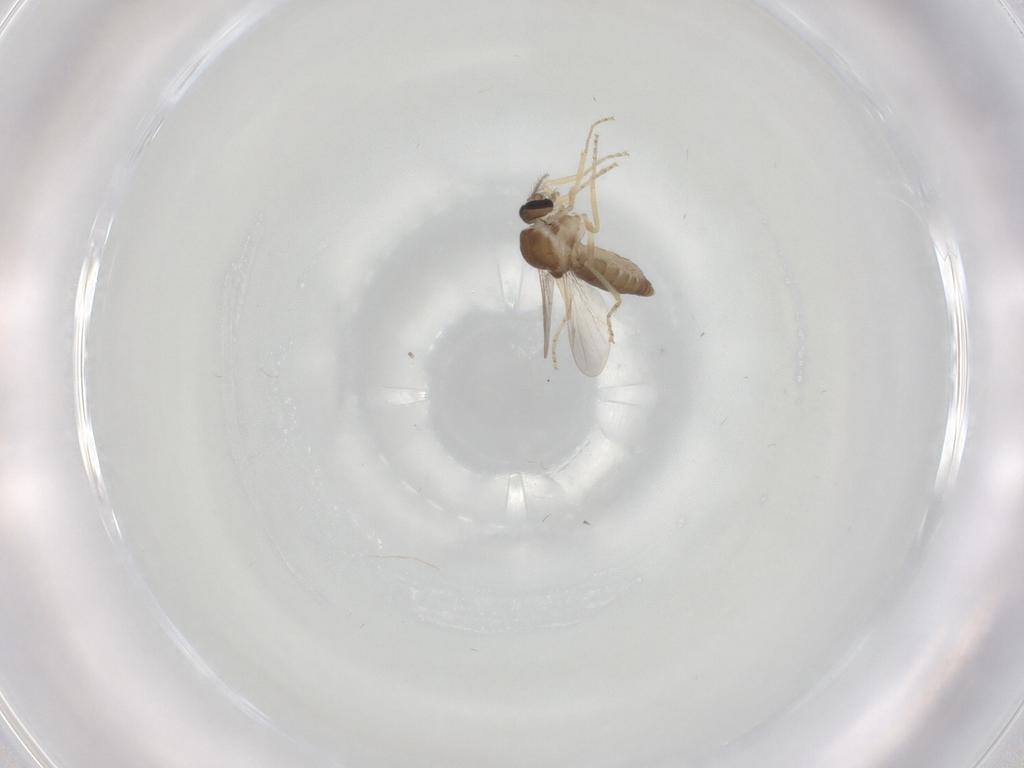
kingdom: Animalia
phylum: Arthropoda
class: Insecta
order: Diptera
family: Ceratopogonidae
